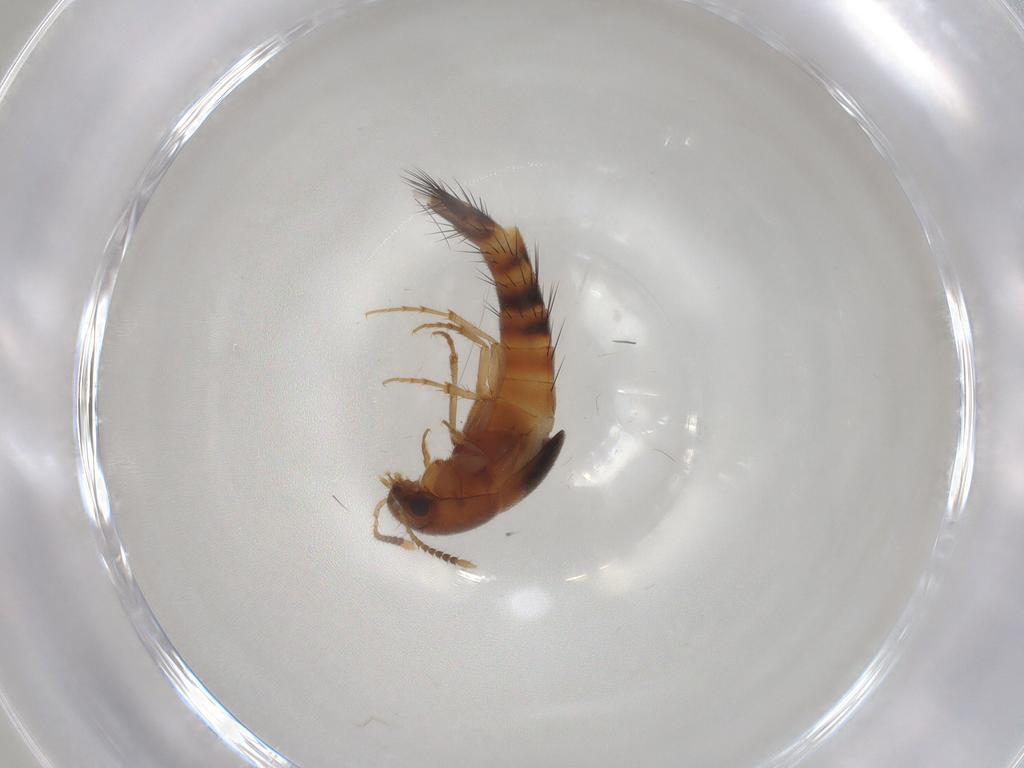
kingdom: Animalia
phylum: Arthropoda
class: Insecta
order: Coleoptera
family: Staphylinidae
